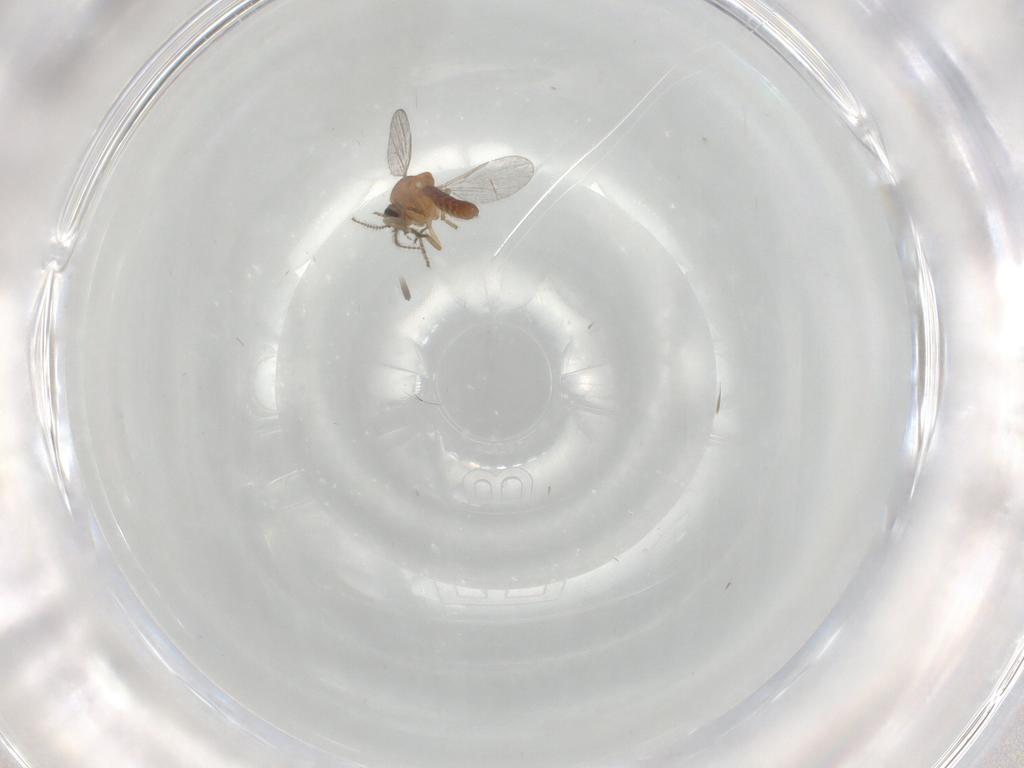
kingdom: Animalia
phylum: Arthropoda
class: Insecta
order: Diptera
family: Ceratopogonidae
